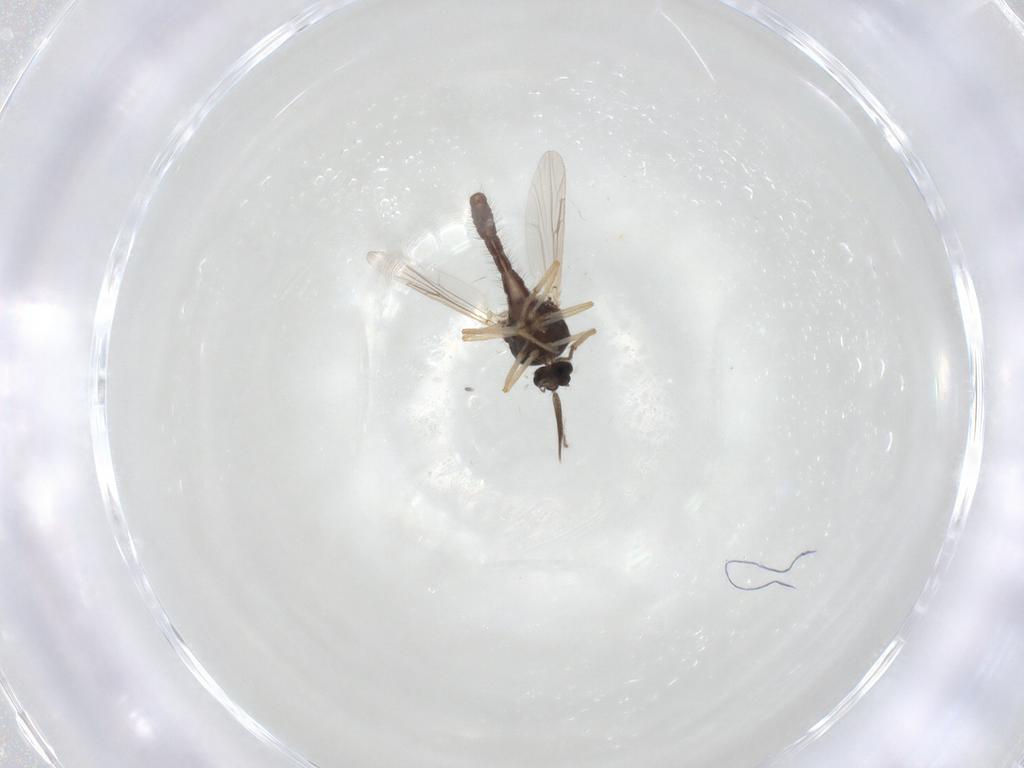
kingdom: Animalia
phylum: Arthropoda
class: Insecta
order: Diptera
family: Ceratopogonidae
